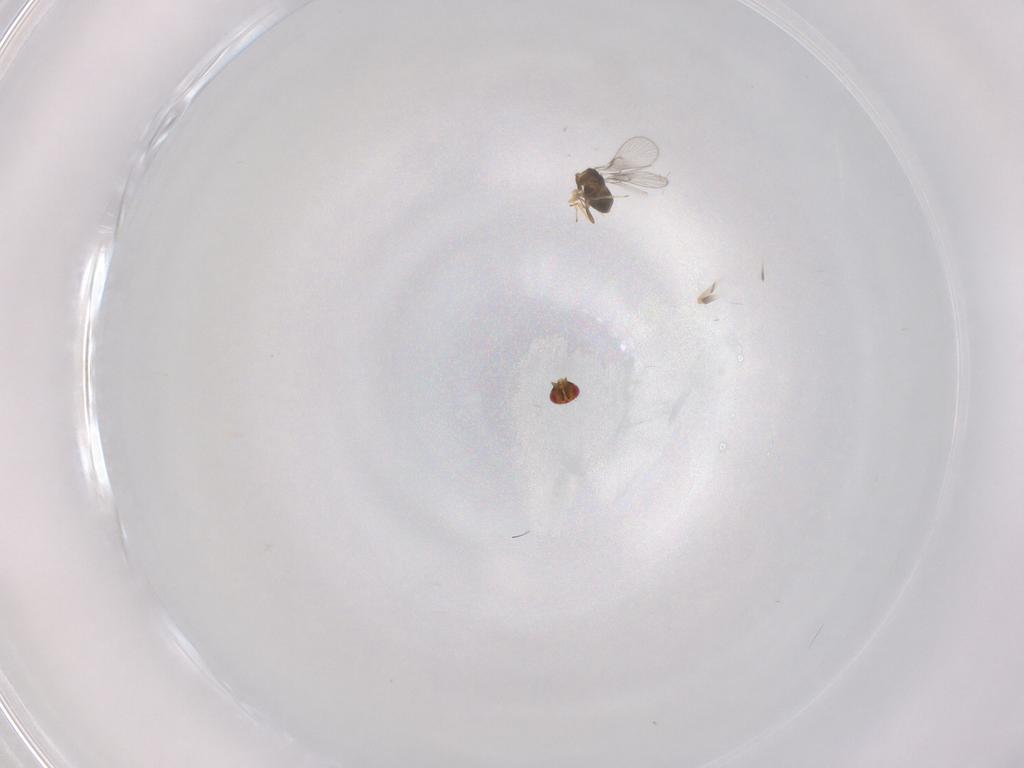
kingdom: Animalia
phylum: Arthropoda
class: Insecta
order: Hymenoptera
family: Trichogrammatidae
